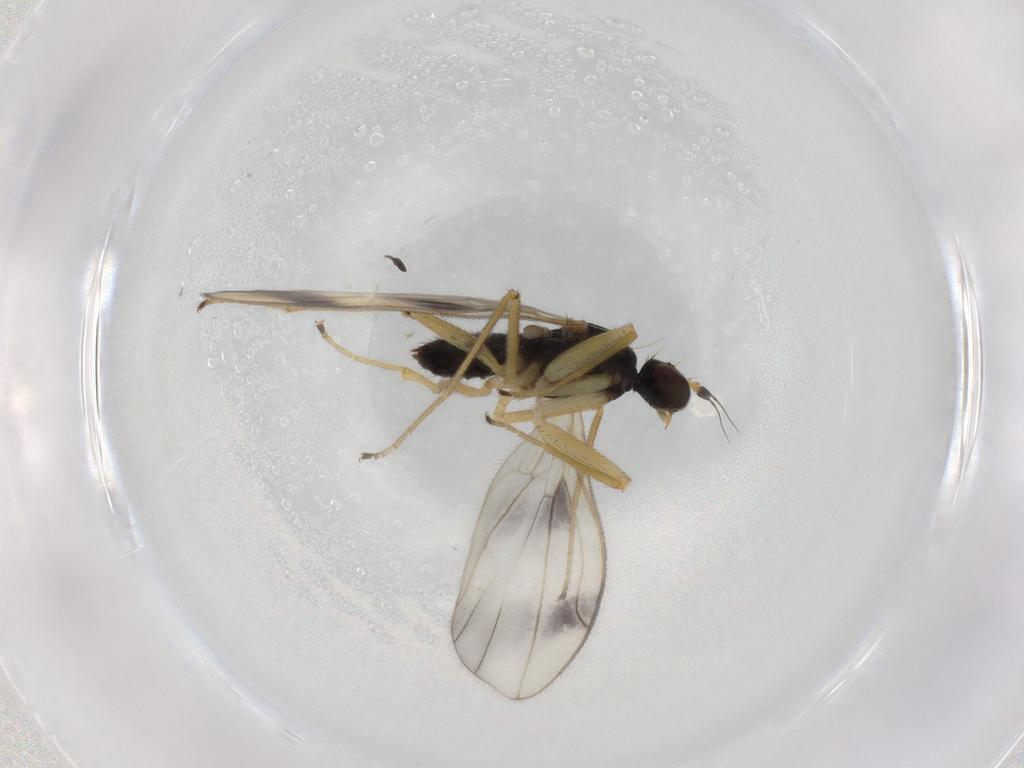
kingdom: Animalia
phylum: Arthropoda
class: Insecta
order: Diptera
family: Empididae
